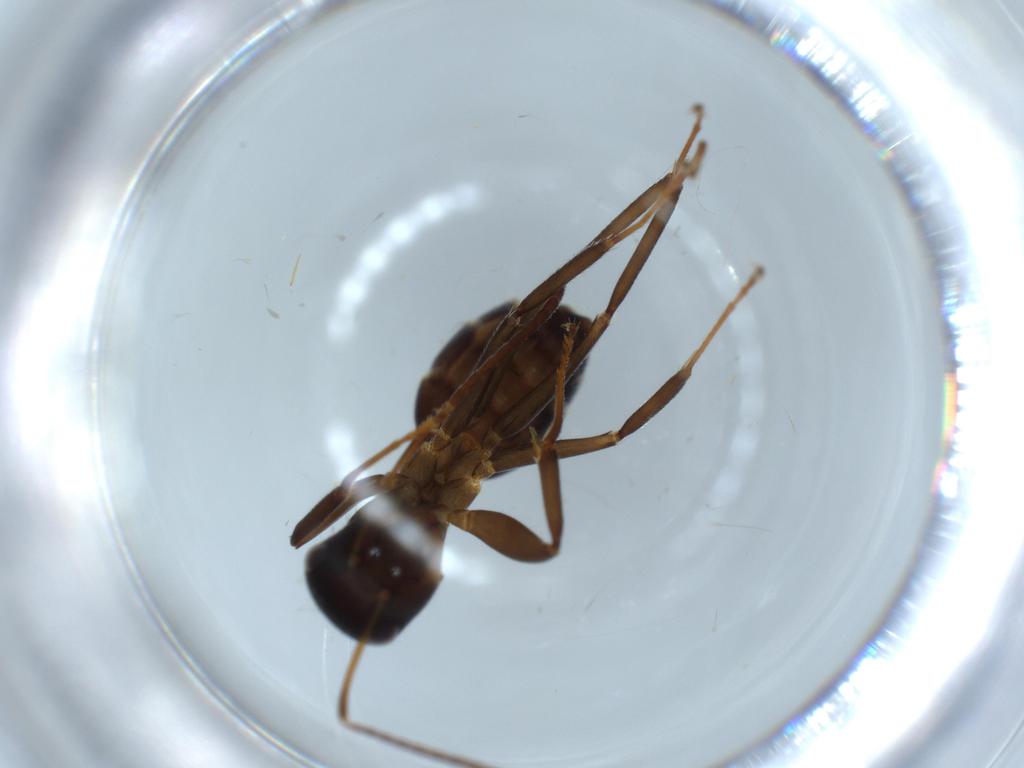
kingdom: Animalia
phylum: Arthropoda
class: Insecta
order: Hymenoptera
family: Formicidae
